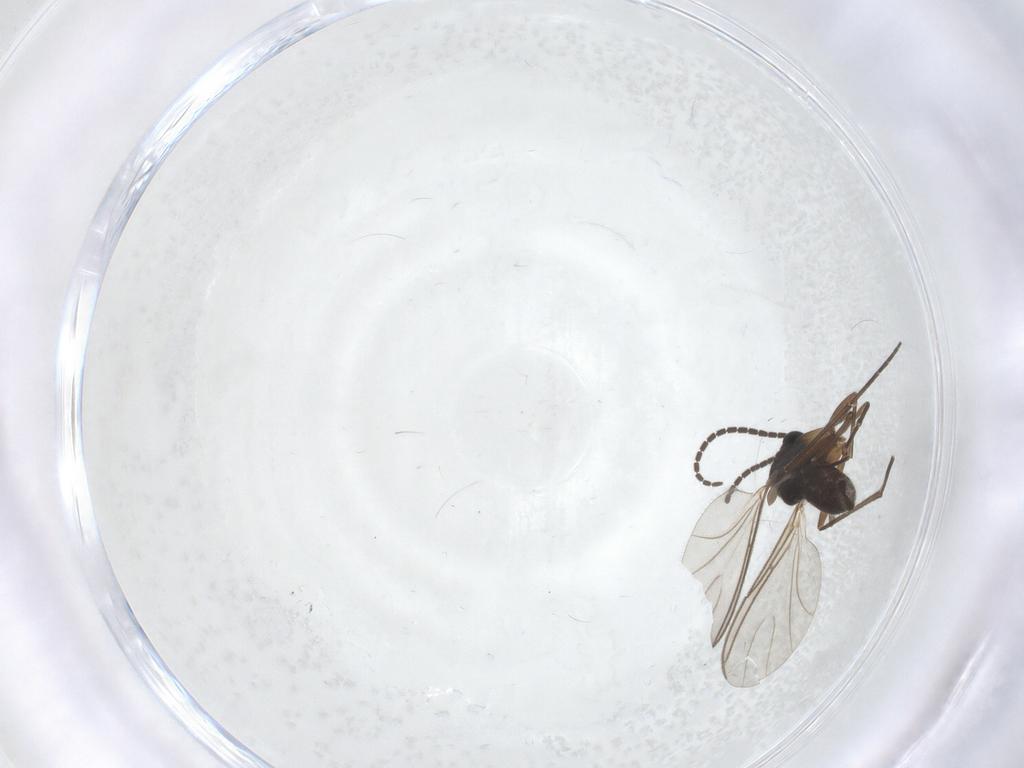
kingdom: Animalia
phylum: Arthropoda
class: Insecta
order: Diptera
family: Sciaridae
